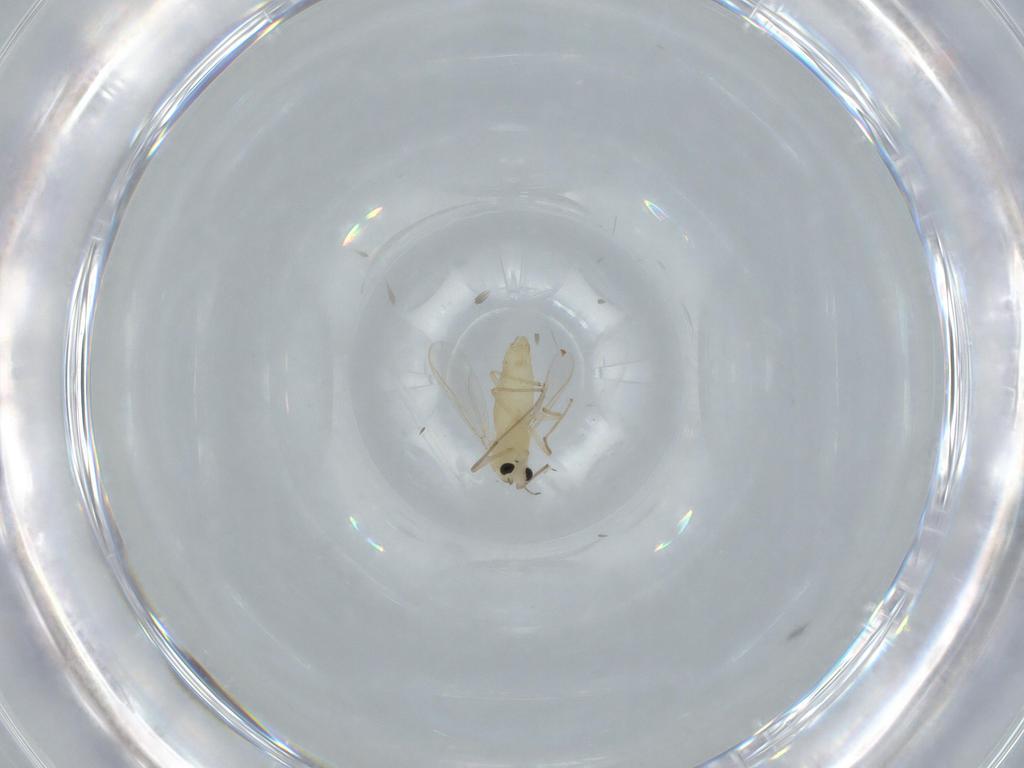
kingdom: Animalia
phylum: Arthropoda
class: Insecta
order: Diptera
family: Chironomidae
